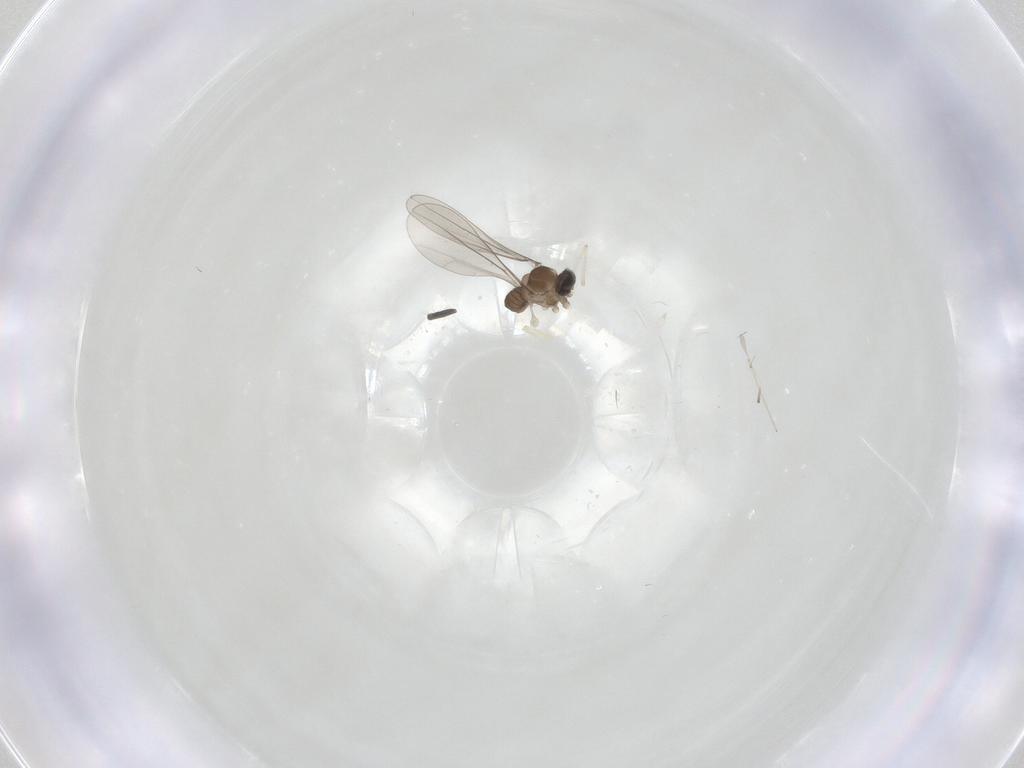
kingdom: Animalia
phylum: Arthropoda
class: Insecta
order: Diptera
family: Cecidomyiidae
